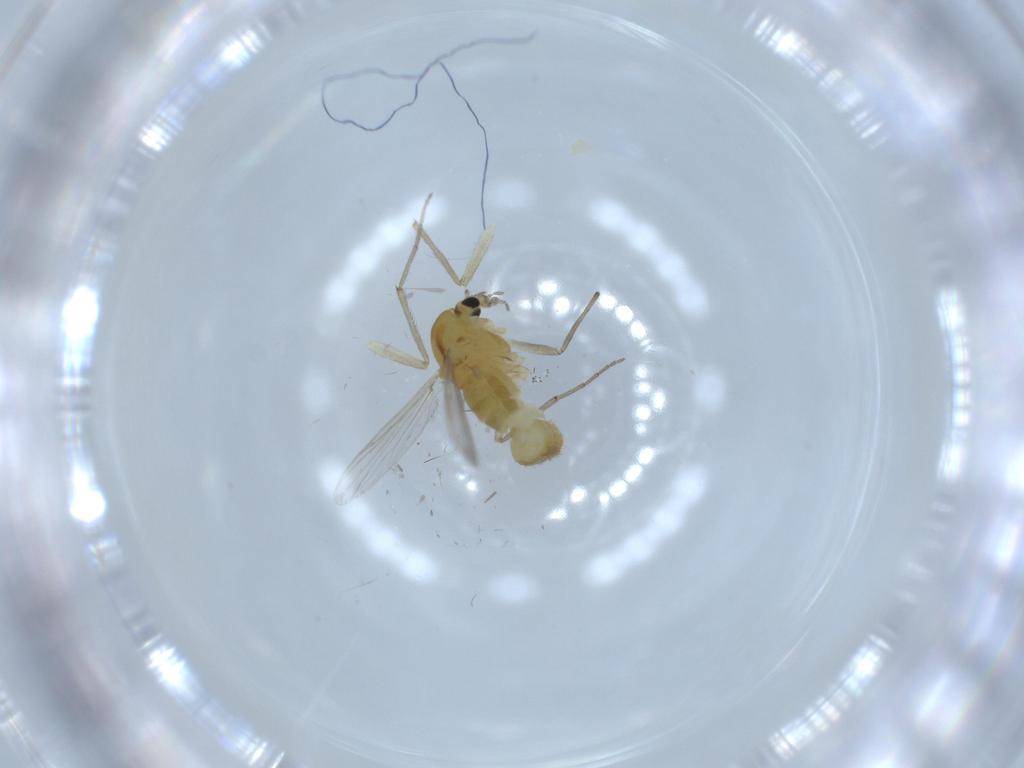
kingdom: Animalia
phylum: Arthropoda
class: Insecta
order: Diptera
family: Chironomidae
